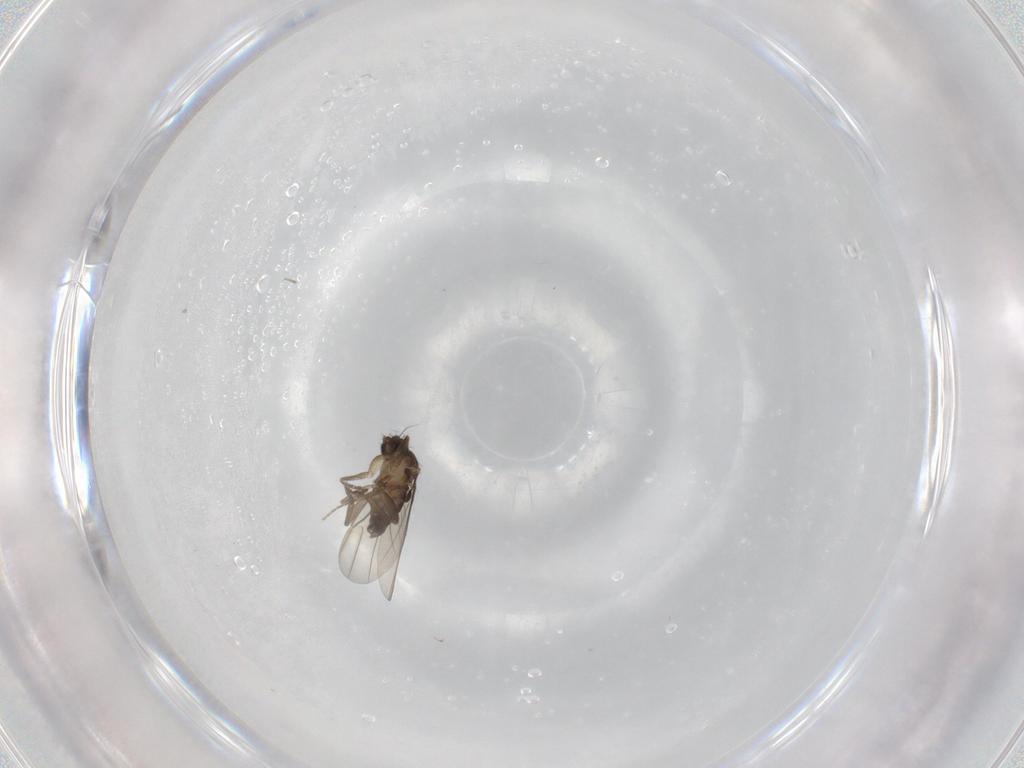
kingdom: Animalia
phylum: Arthropoda
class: Insecta
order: Diptera
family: Phoridae
